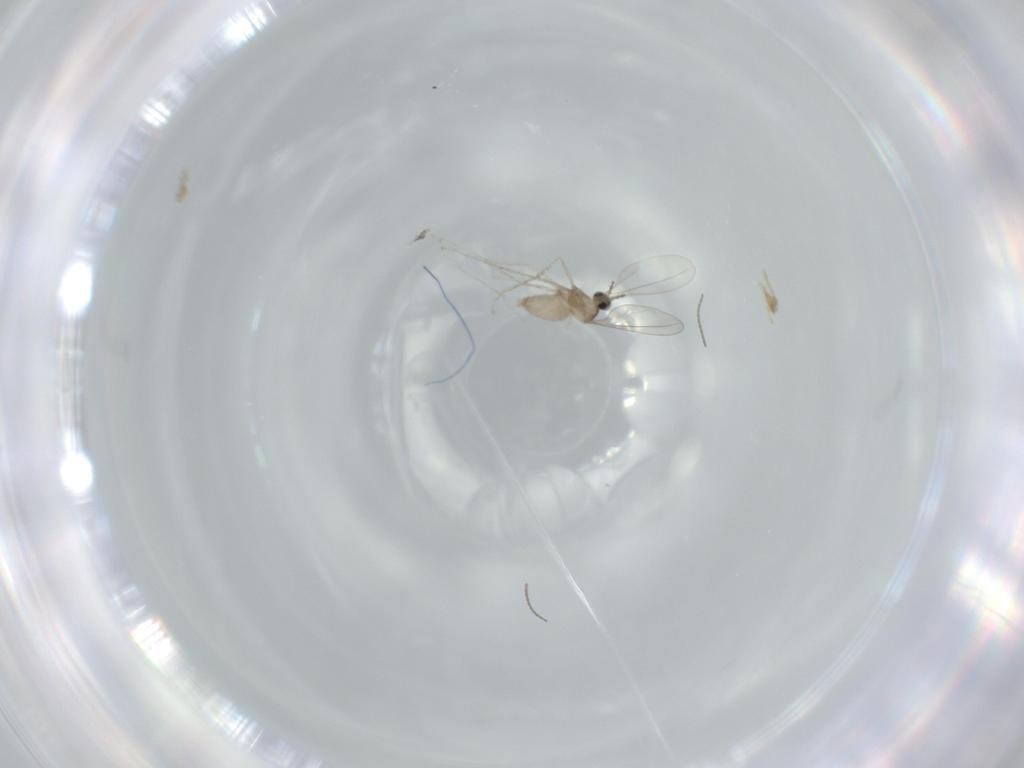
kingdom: Animalia
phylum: Arthropoda
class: Insecta
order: Diptera
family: Cecidomyiidae
